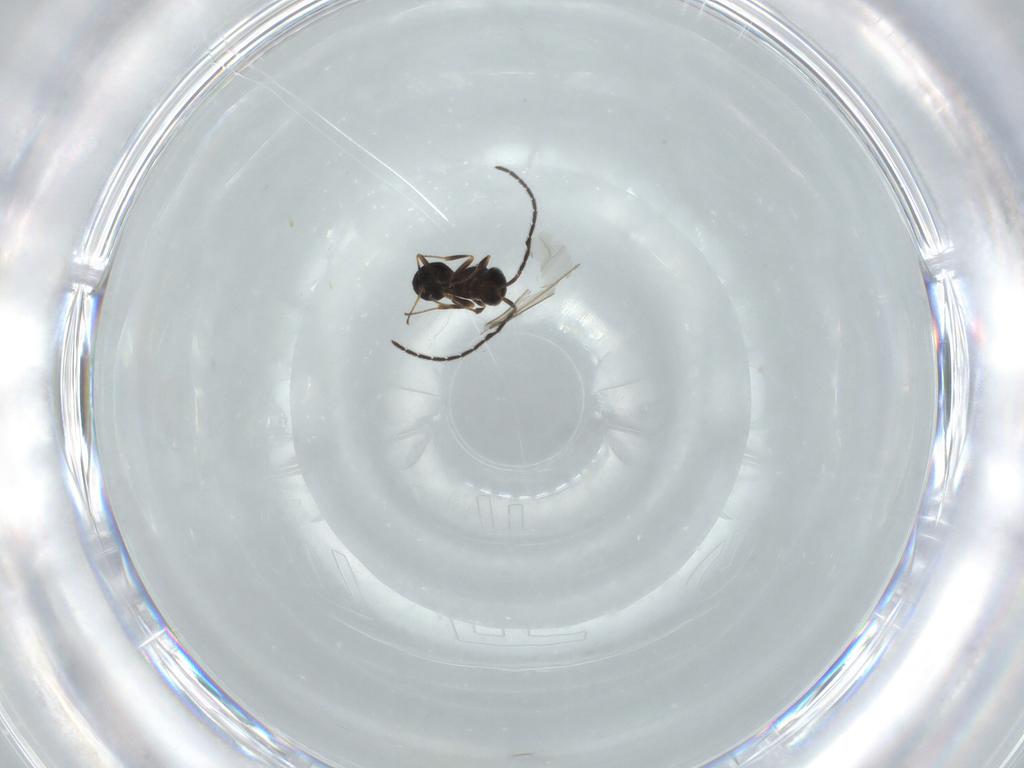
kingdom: Animalia
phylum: Arthropoda
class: Insecta
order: Hymenoptera
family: Scelionidae
